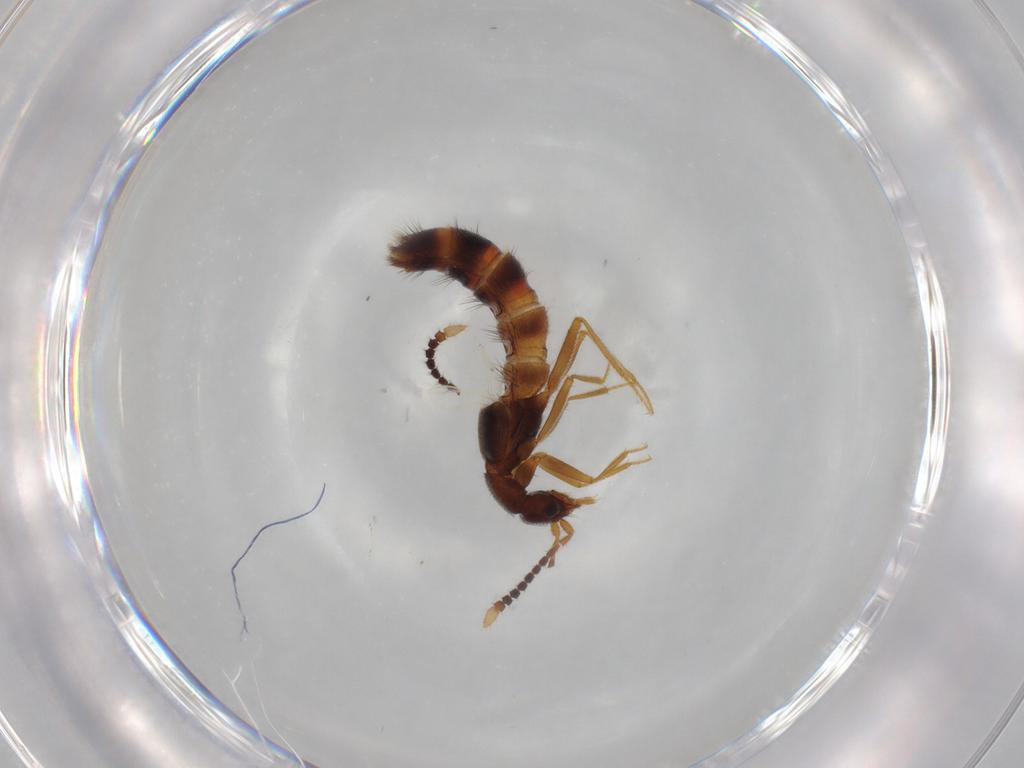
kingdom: Animalia
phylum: Arthropoda
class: Insecta
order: Coleoptera
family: Staphylinidae
